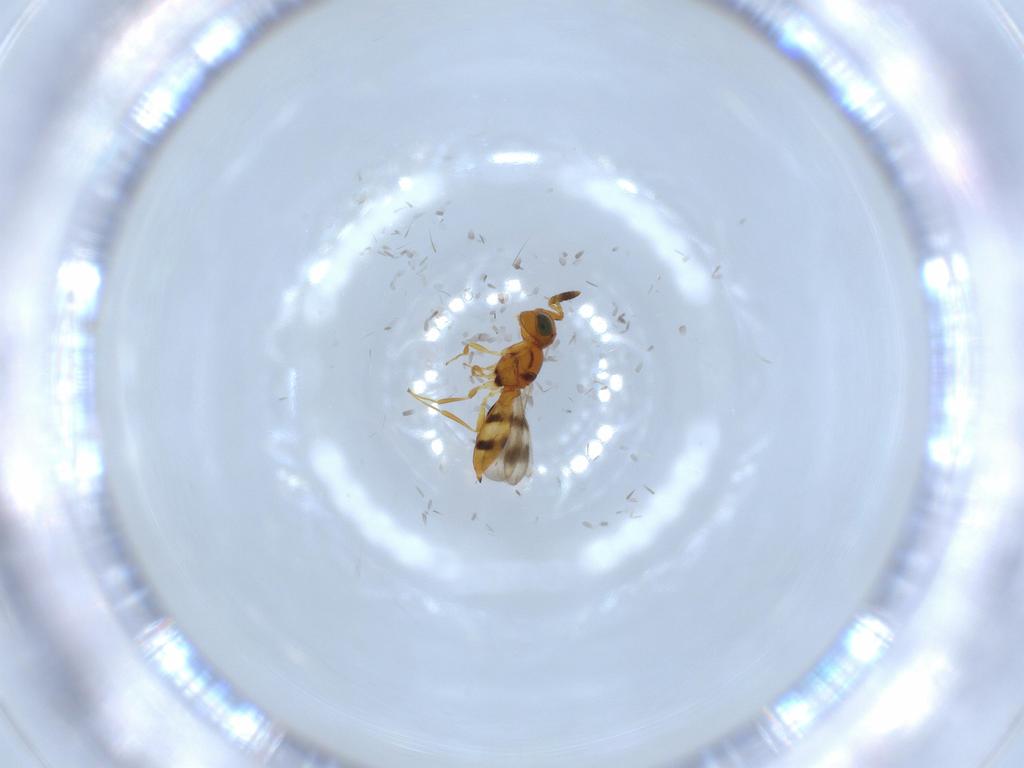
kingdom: Animalia
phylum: Arthropoda
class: Insecta
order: Hymenoptera
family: Scelionidae
